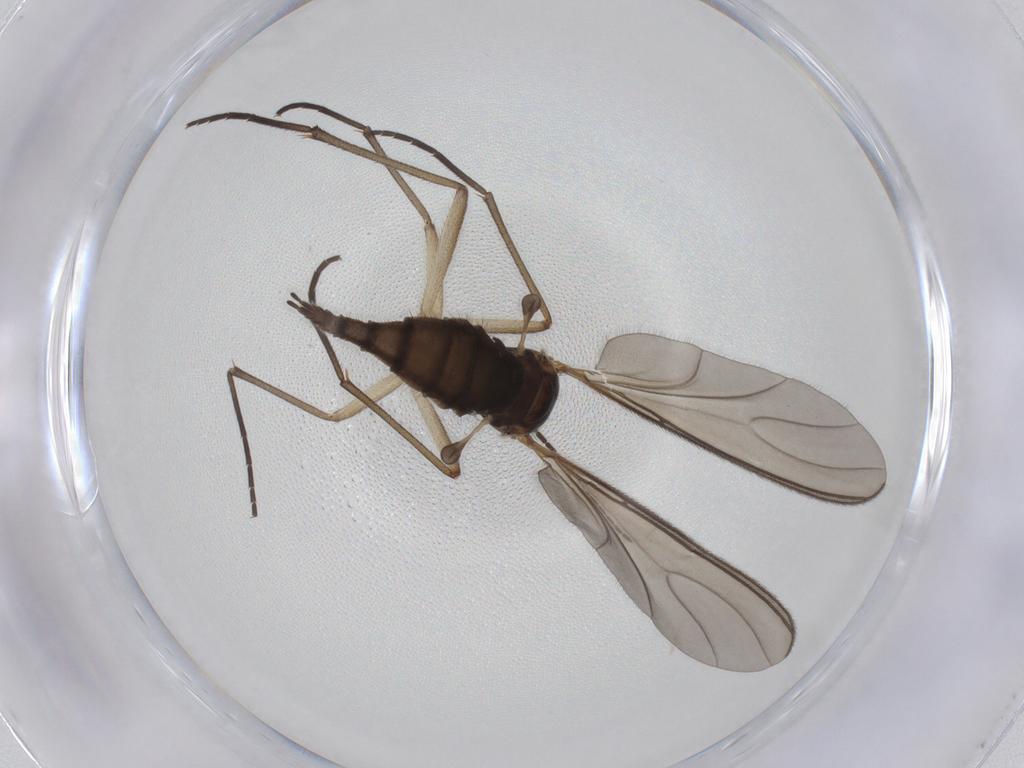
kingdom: Animalia
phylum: Arthropoda
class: Insecta
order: Diptera
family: Sciaridae
